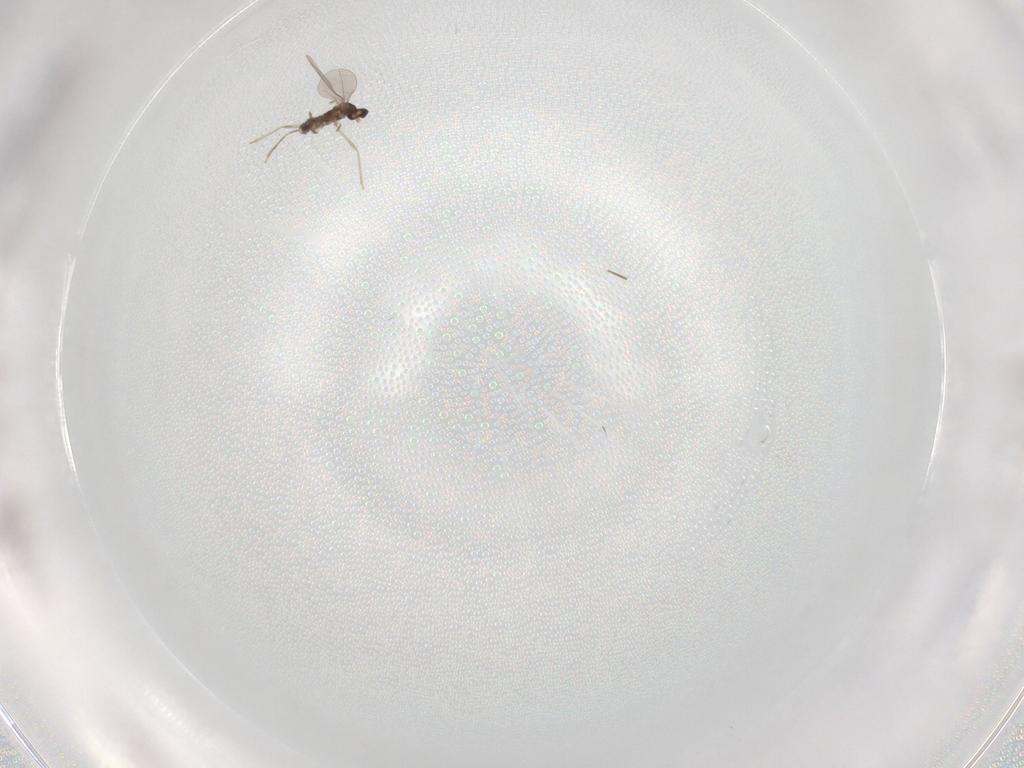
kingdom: Animalia
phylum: Arthropoda
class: Insecta
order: Diptera
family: Cecidomyiidae
